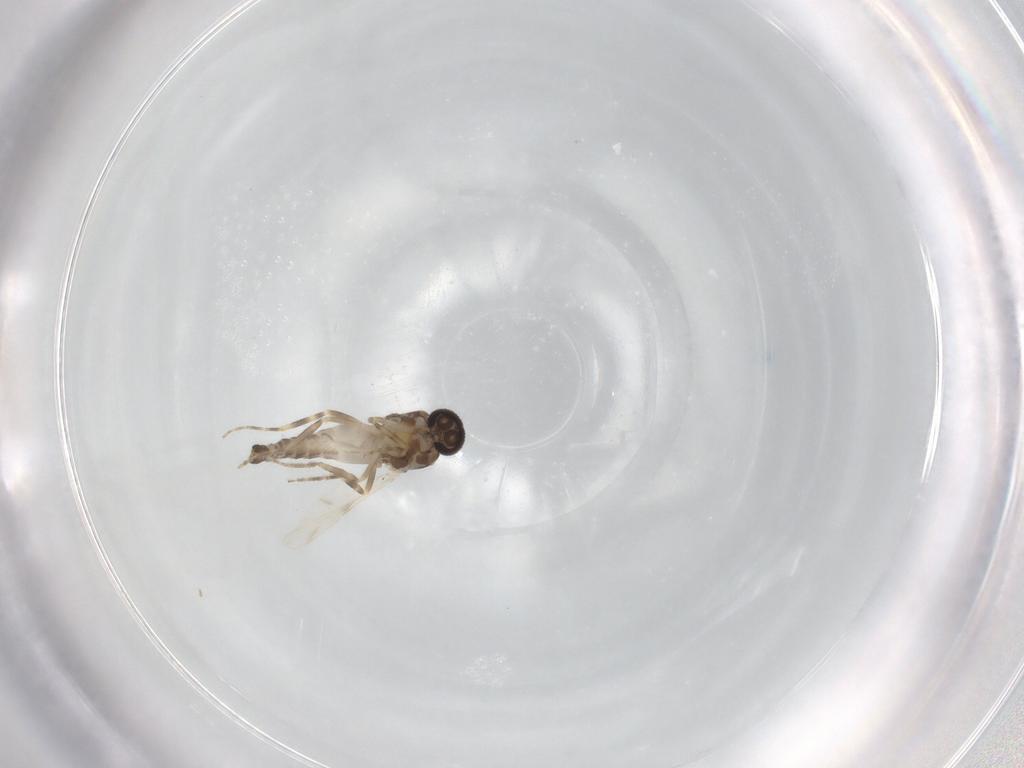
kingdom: Animalia
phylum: Arthropoda
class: Insecta
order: Diptera
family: Ceratopogonidae
